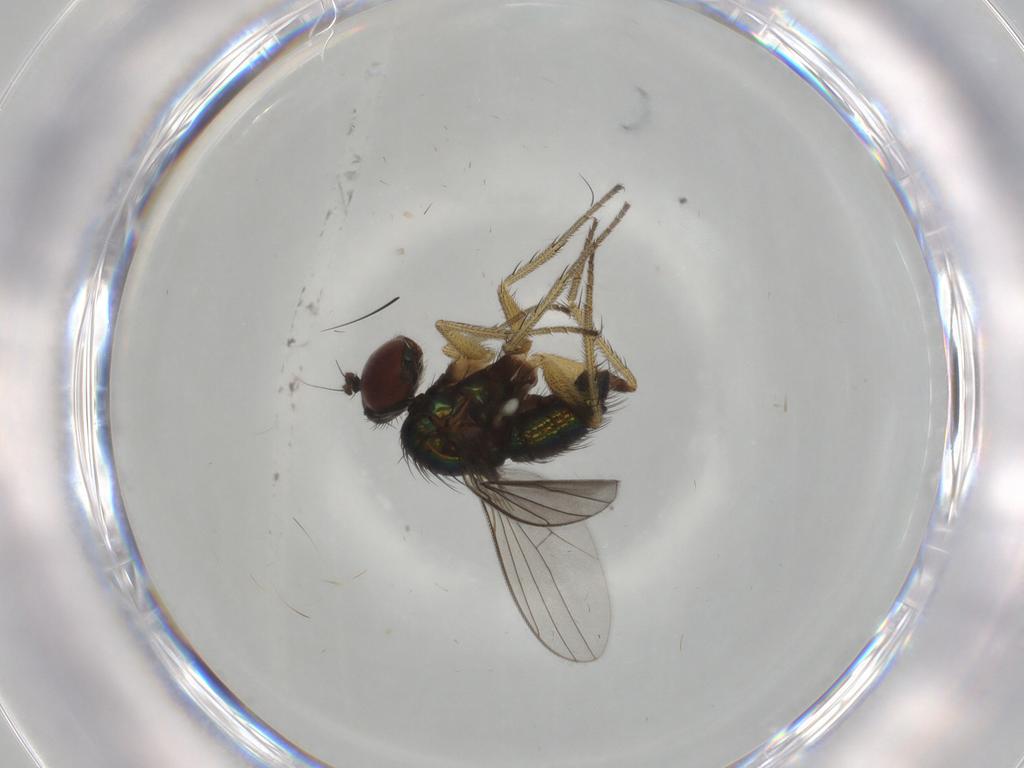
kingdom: Animalia
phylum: Arthropoda
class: Insecta
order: Diptera
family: Dolichopodidae
